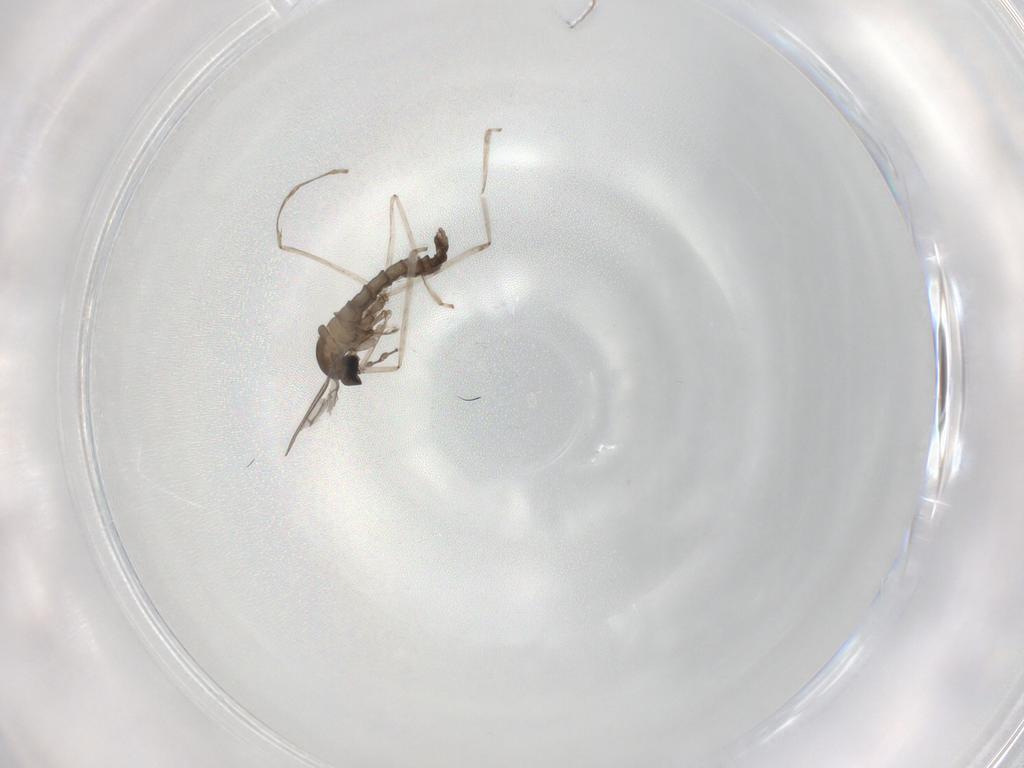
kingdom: Animalia
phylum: Arthropoda
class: Insecta
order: Diptera
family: Cecidomyiidae
